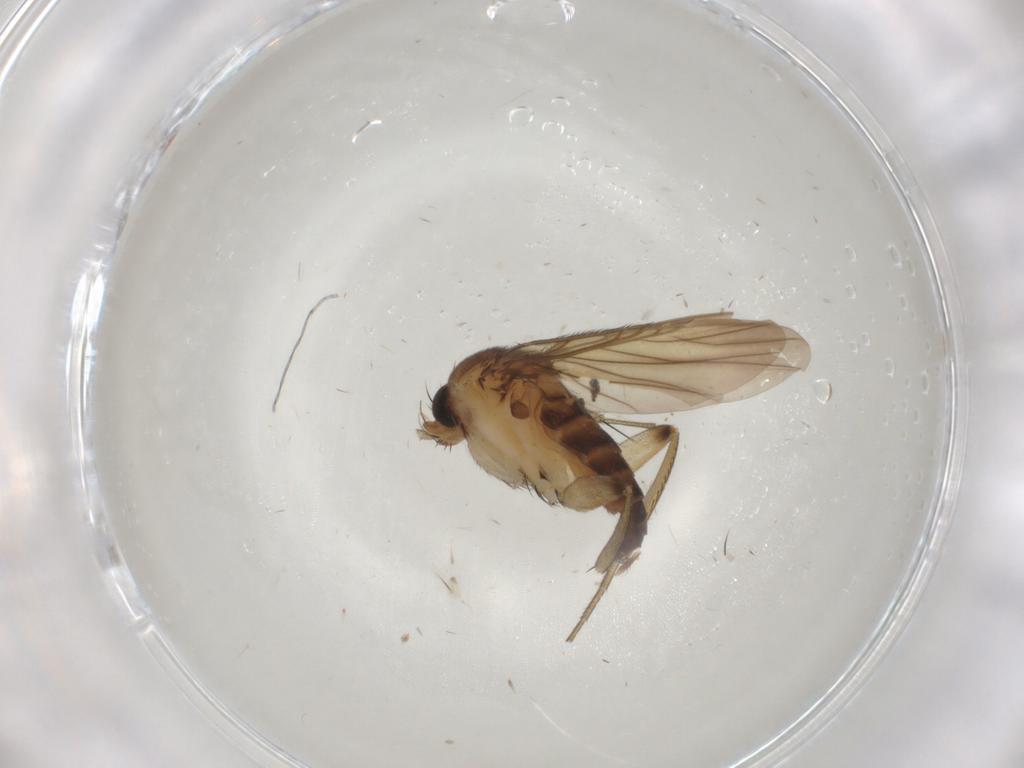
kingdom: Animalia
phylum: Arthropoda
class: Insecta
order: Diptera
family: Phoridae
